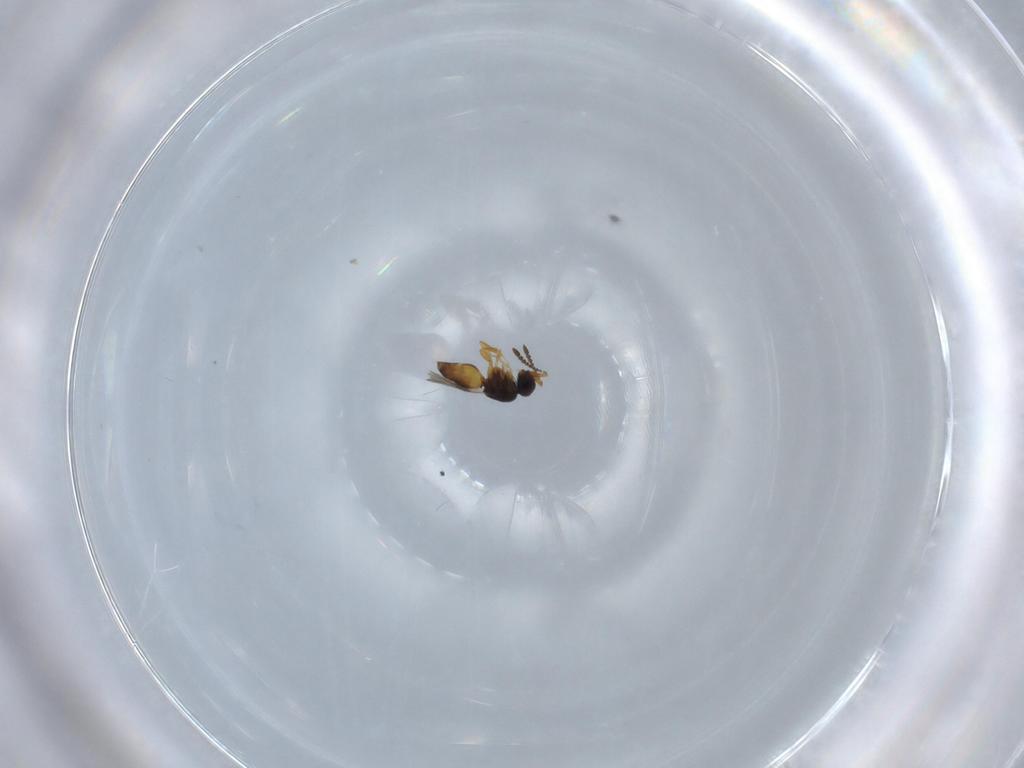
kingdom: Animalia
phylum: Arthropoda
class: Insecta
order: Hymenoptera
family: Bethylidae
